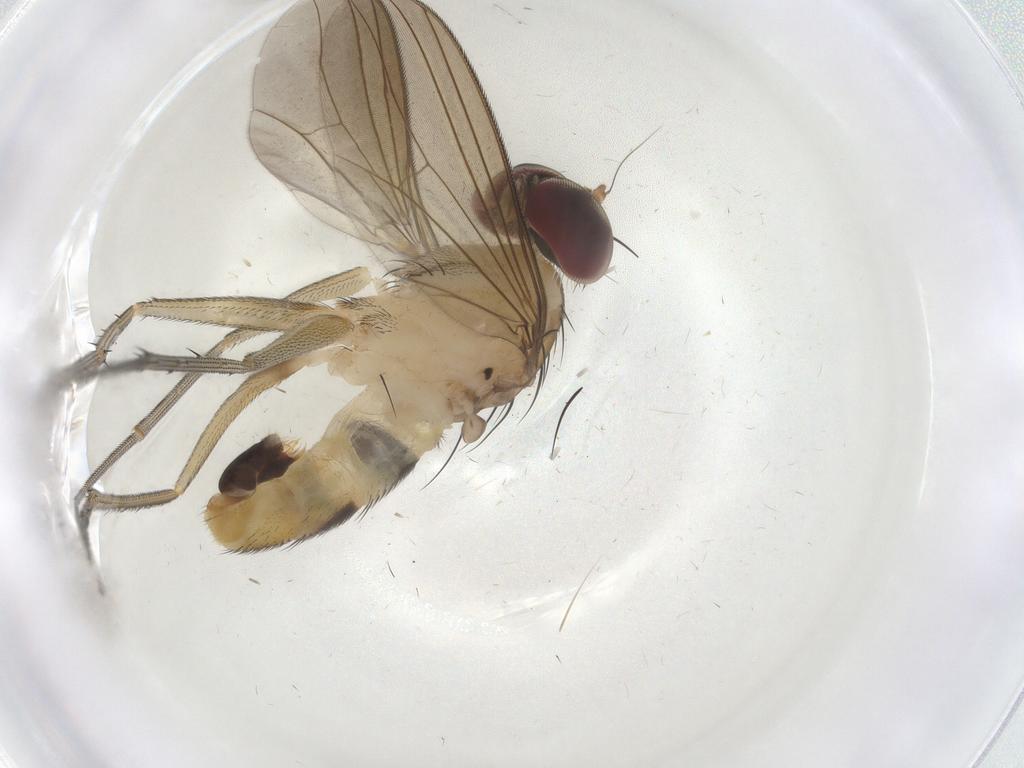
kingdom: Animalia
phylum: Arthropoda
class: Insecta
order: Diptera
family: Dolichopodidae
